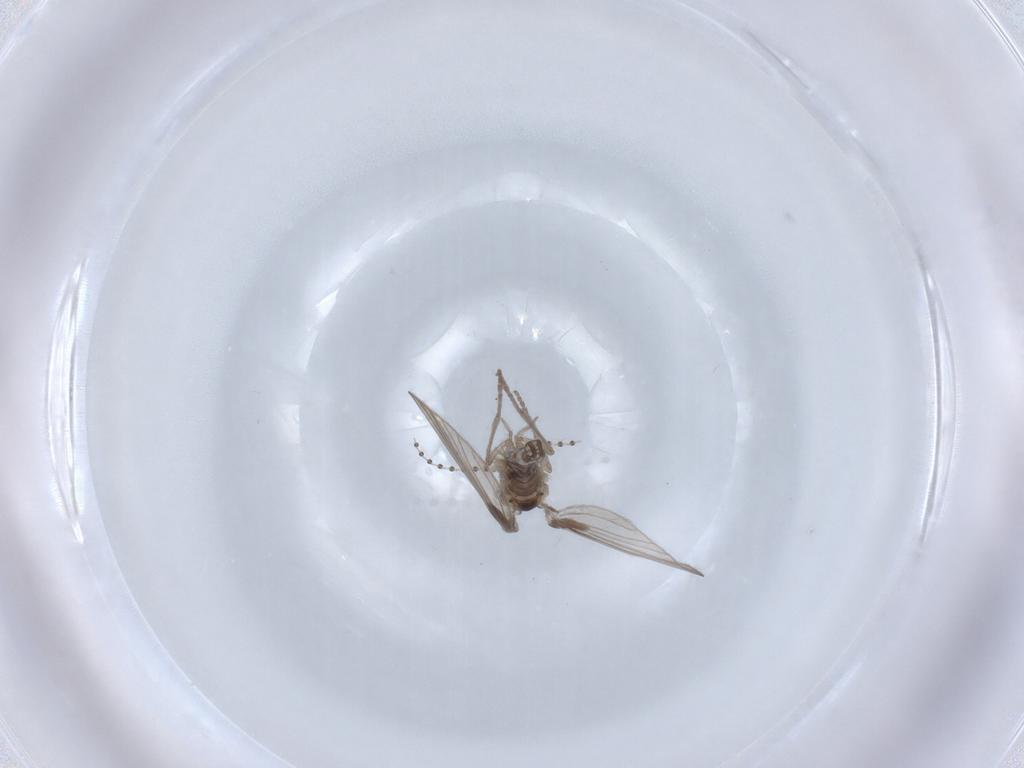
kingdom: Animalia
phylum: Arthropoda
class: Insecta
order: Diptera
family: Psychodidae
